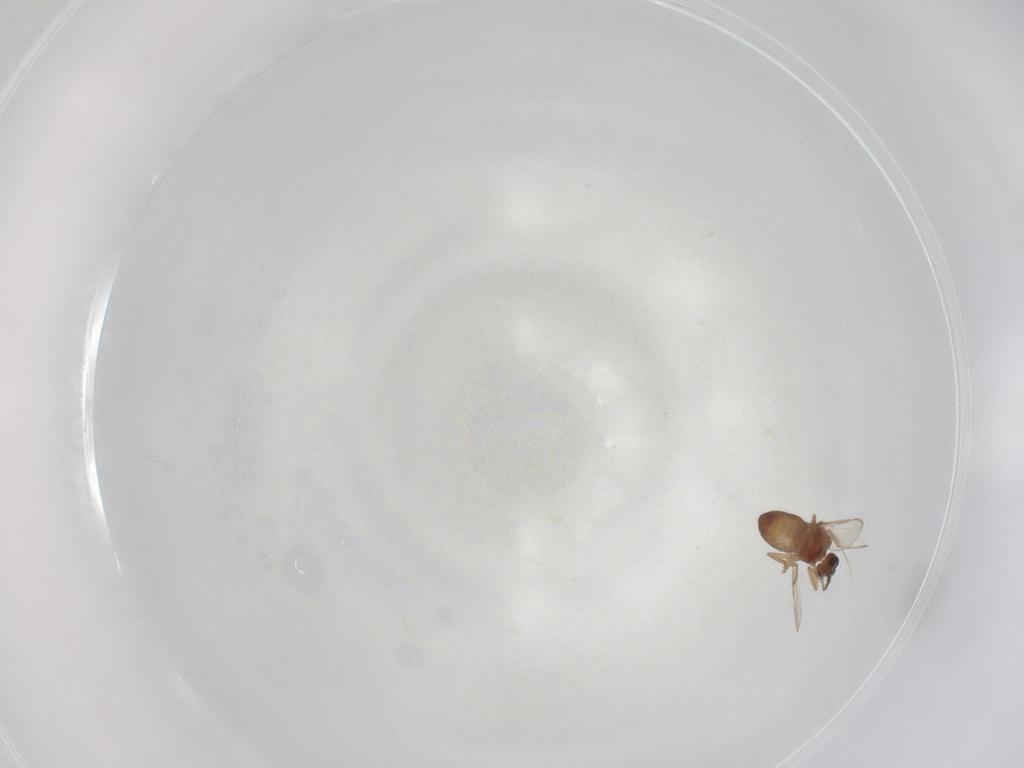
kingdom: Animalia
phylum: Arthropoda
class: Insecta
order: Diptera
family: Ceratopogonidae
